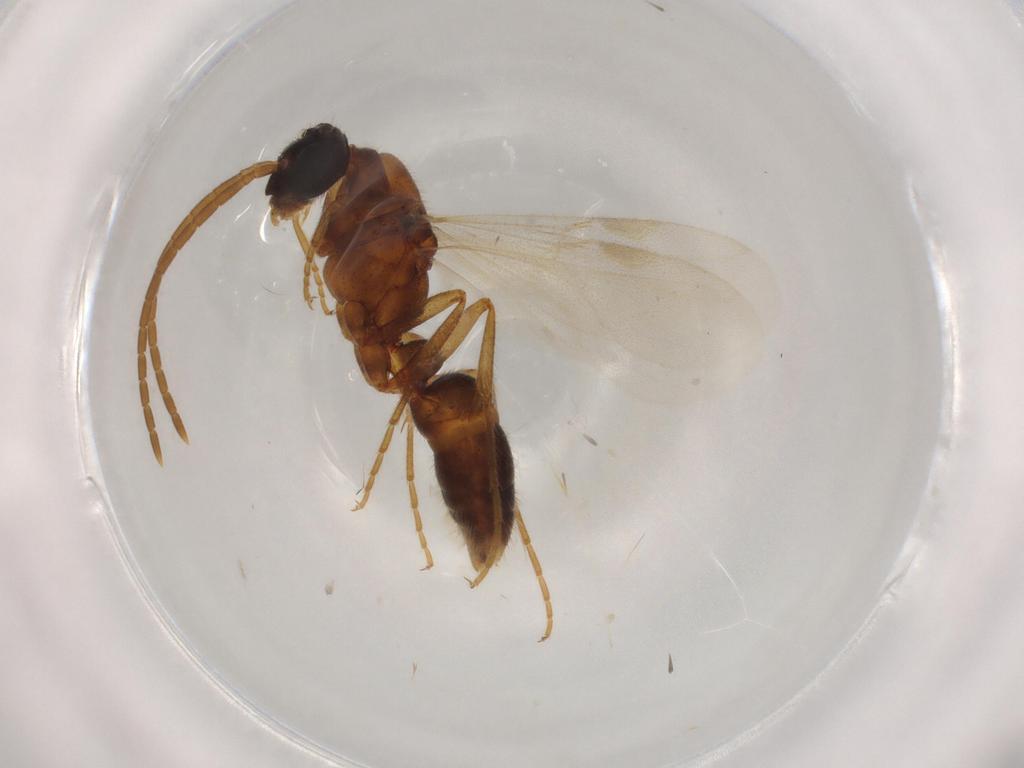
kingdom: Animalia
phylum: Arthropoda
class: Insecta
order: Hymenoptera
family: Formicidae
